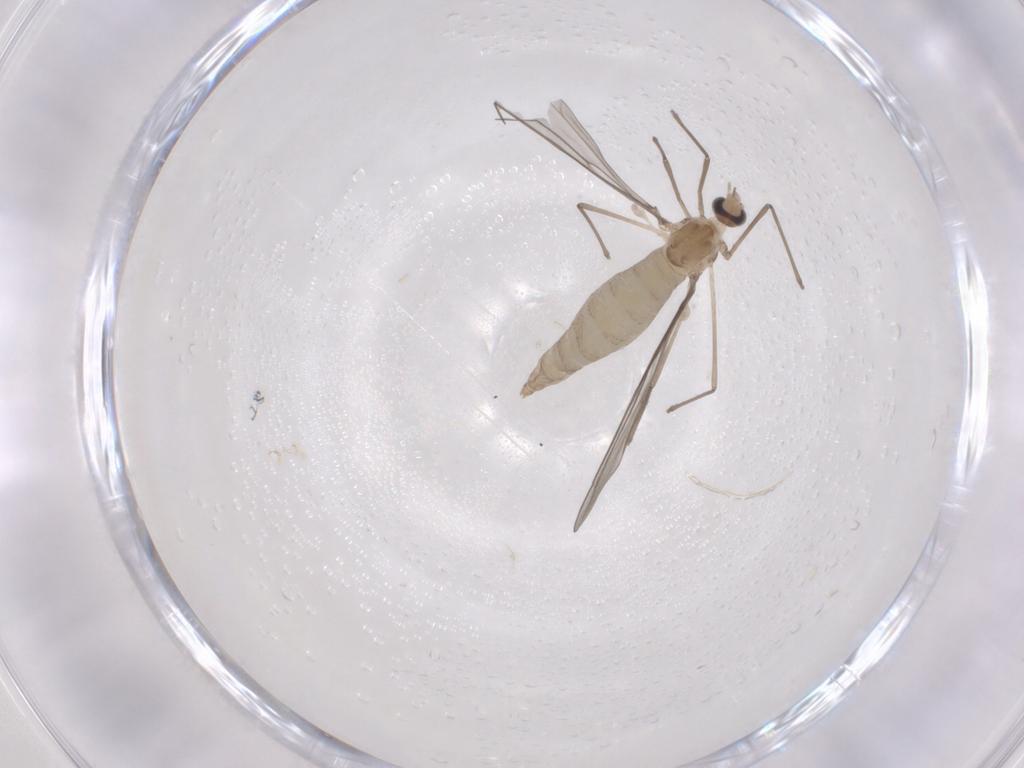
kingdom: Animalia
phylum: Arthropoda
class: Insecta
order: Diptera
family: Cecidomyiidae
